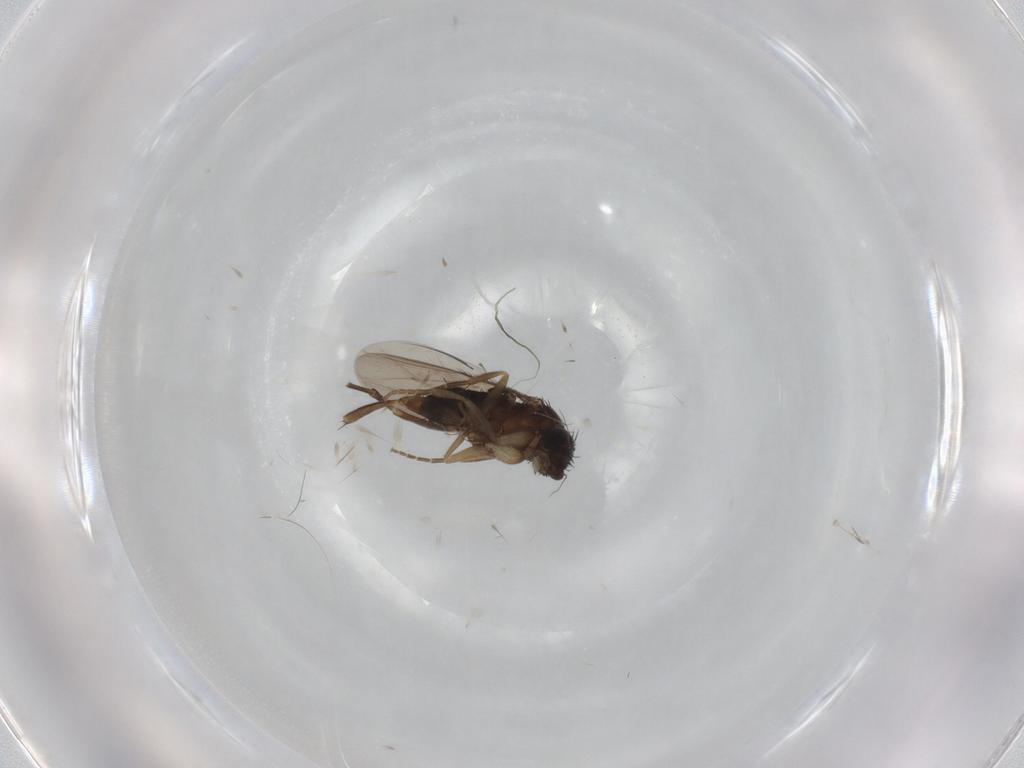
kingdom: Animalia
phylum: Arthropoda
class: Insecta
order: Diptera
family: Phoridae
